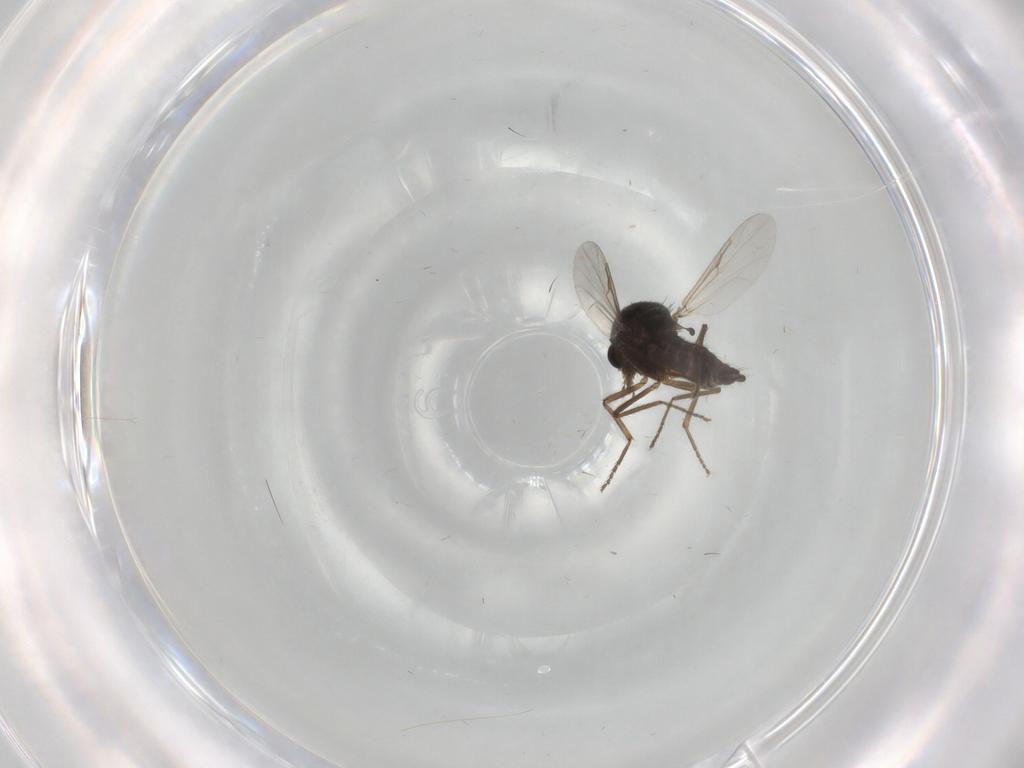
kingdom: Animalia
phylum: Arthropoda
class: Insecta
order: Diptera
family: Ceratopogonidae
